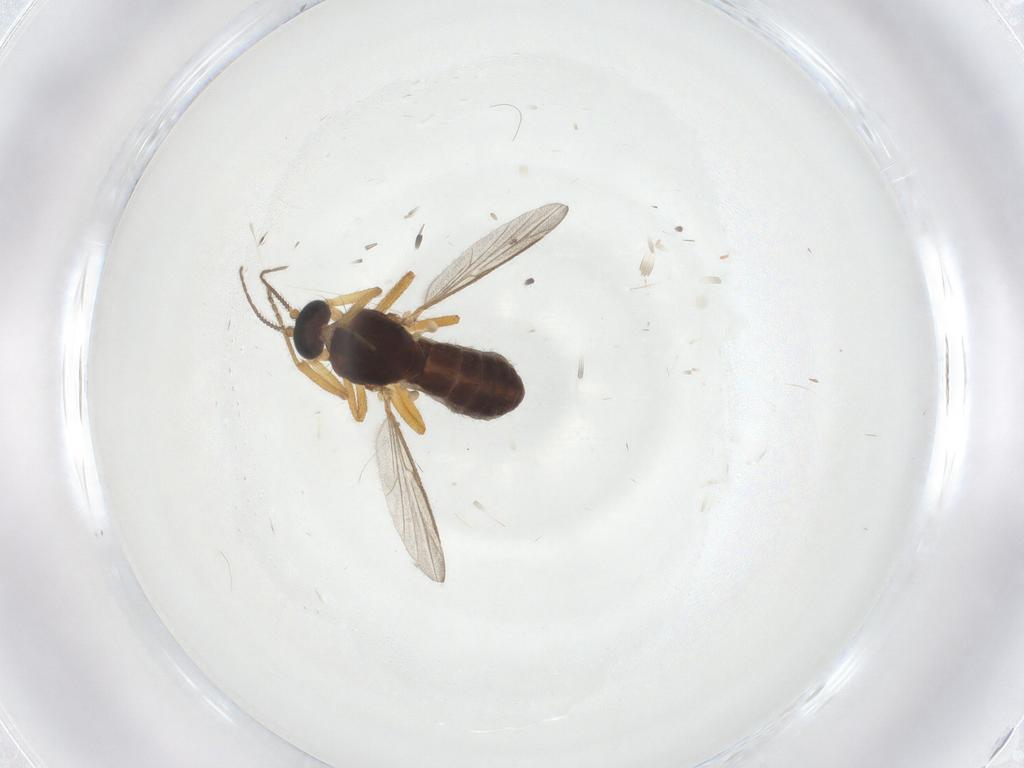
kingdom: Animalia
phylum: Arthropoda
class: Insecta
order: Diptera
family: Ceratopogonidae
